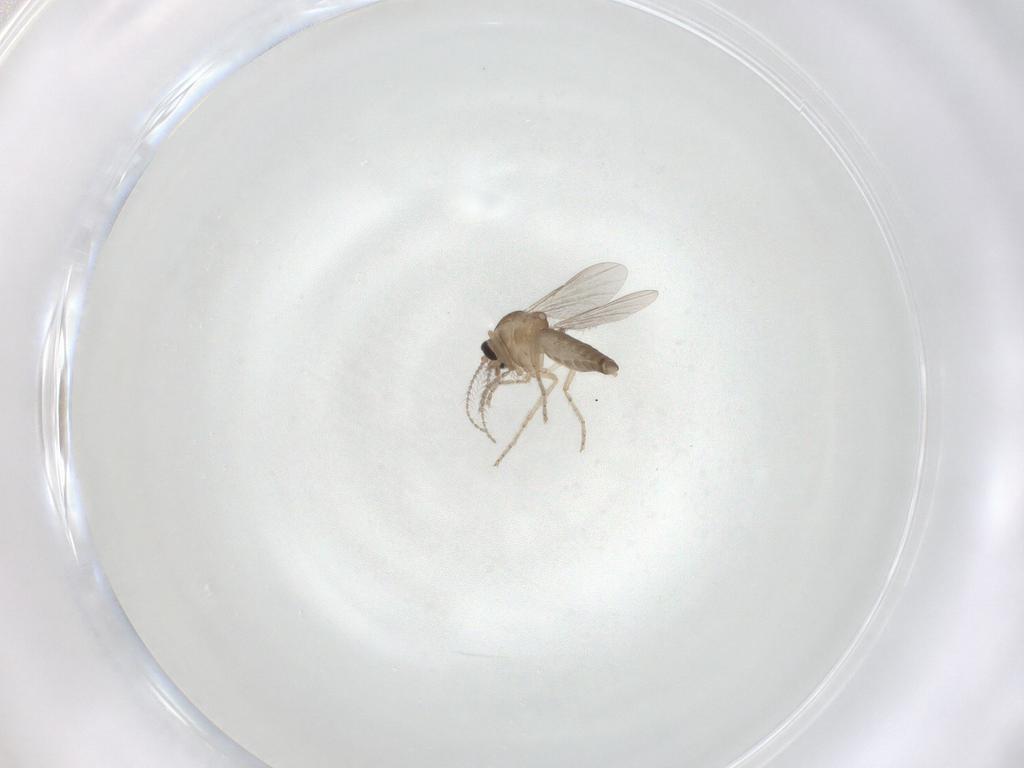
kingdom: Animalia
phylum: Arthropoda
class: Insecta
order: Diptera
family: Ceratopogonidae
